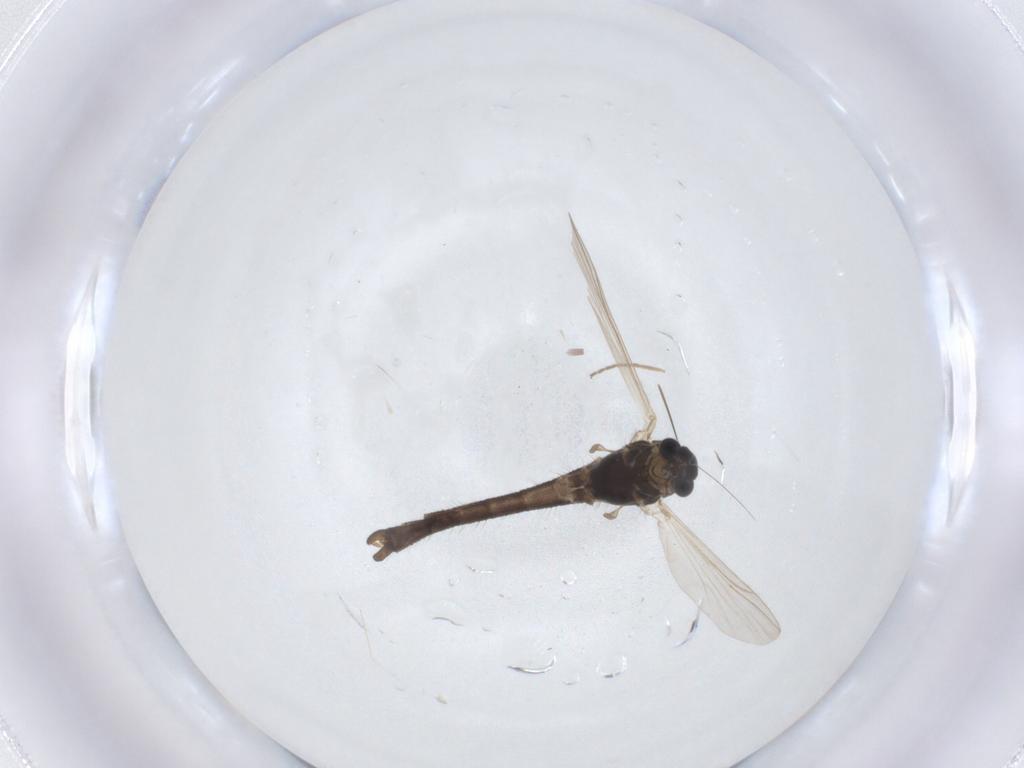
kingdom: Animalia
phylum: Arthropoda
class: Insecta
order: Diptera
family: Chironomidae
